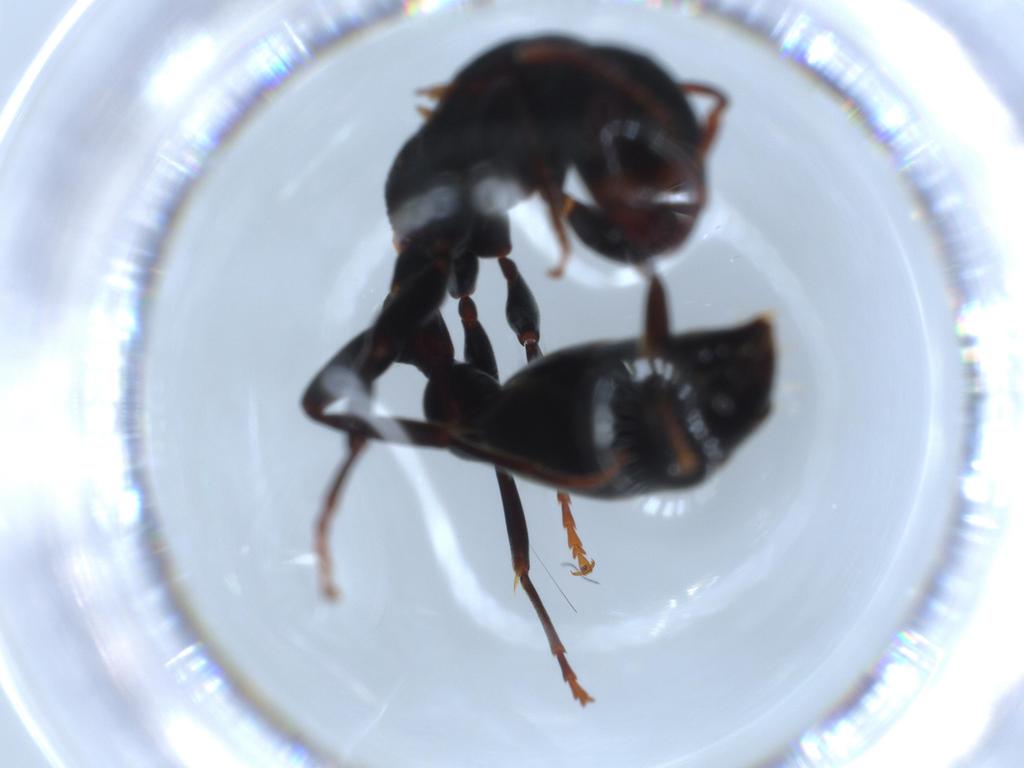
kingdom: Animalia
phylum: Arthropoda
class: Insecta
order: Hymenoptera
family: Formicidae
